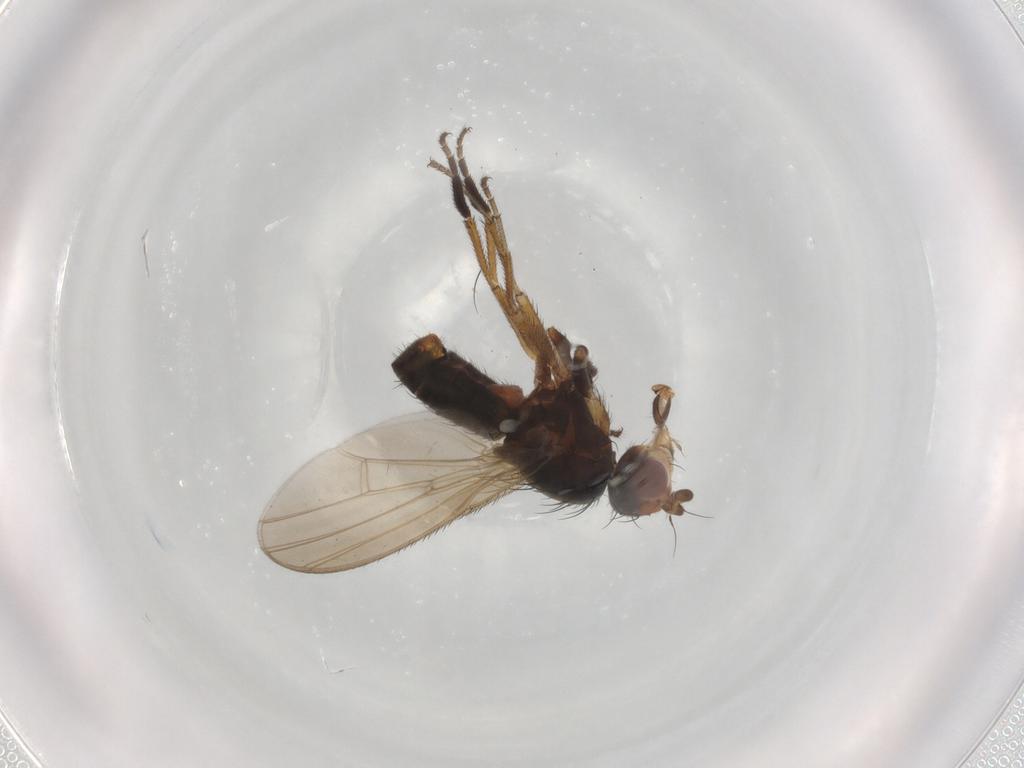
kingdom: Animalia
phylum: Arthropoda
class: Insecta
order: Diptera
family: Heleomyzidae
